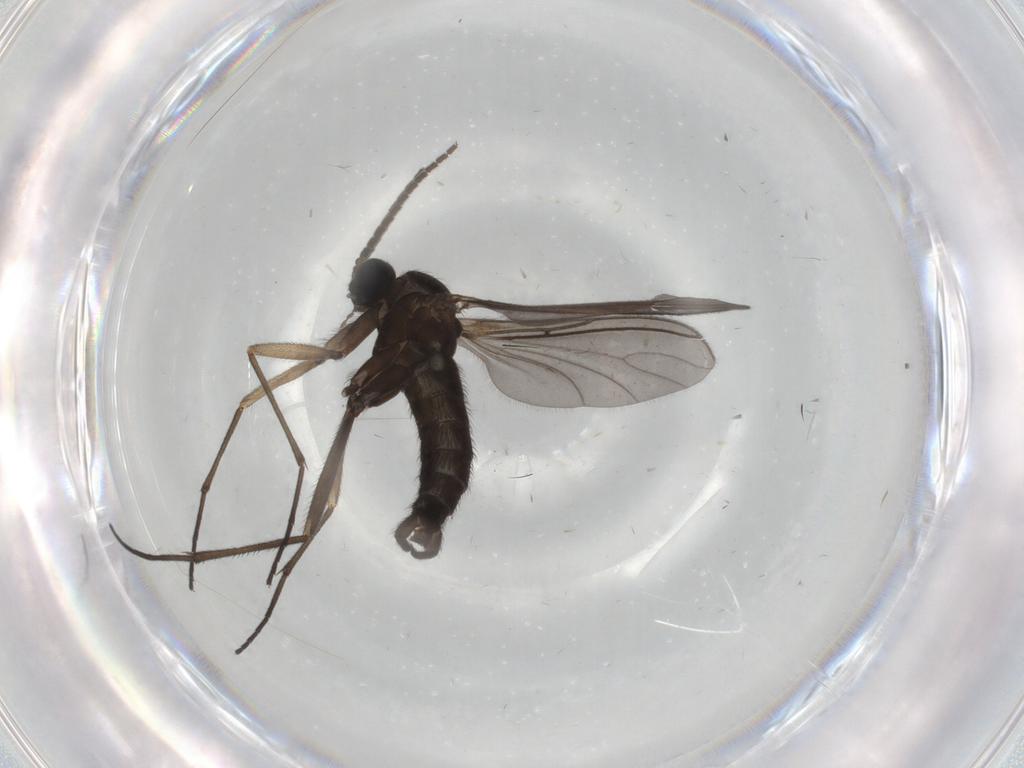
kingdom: Animalia
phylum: Arthropoda
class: Insecta
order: Diptera
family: Sciaridae
